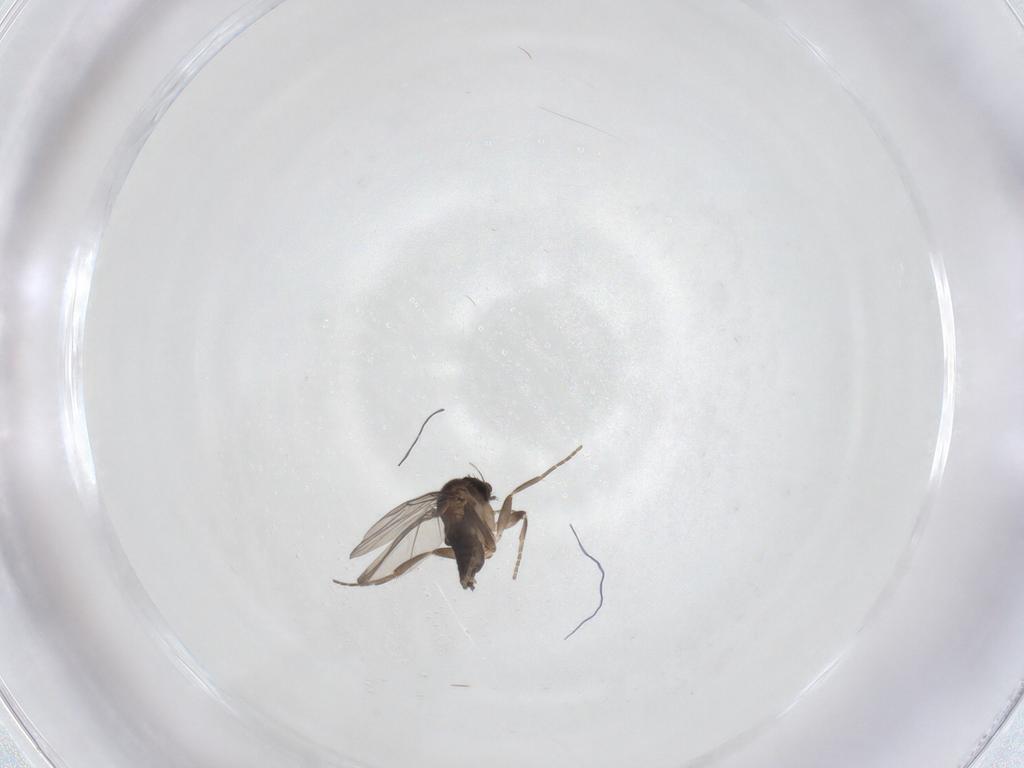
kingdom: Animalia
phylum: Arthropoda
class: Insecta
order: Diptera
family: Phoridae
